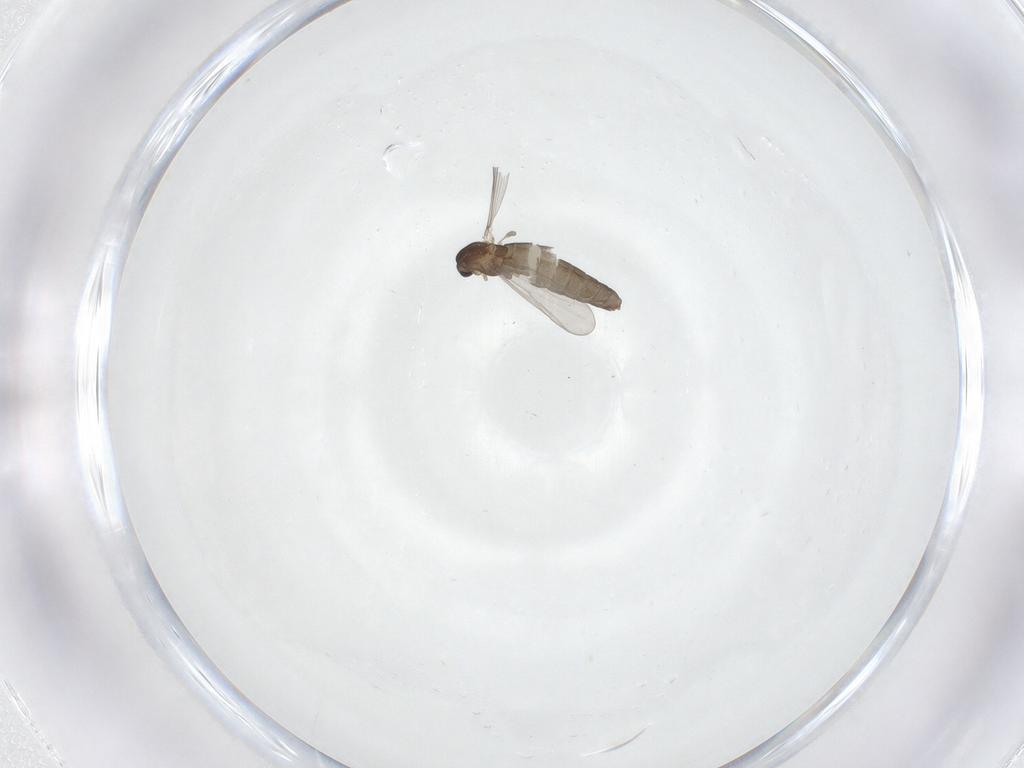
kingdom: Animalia
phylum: Arthropoda
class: Insecta
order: Diptera
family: Chironomidae
